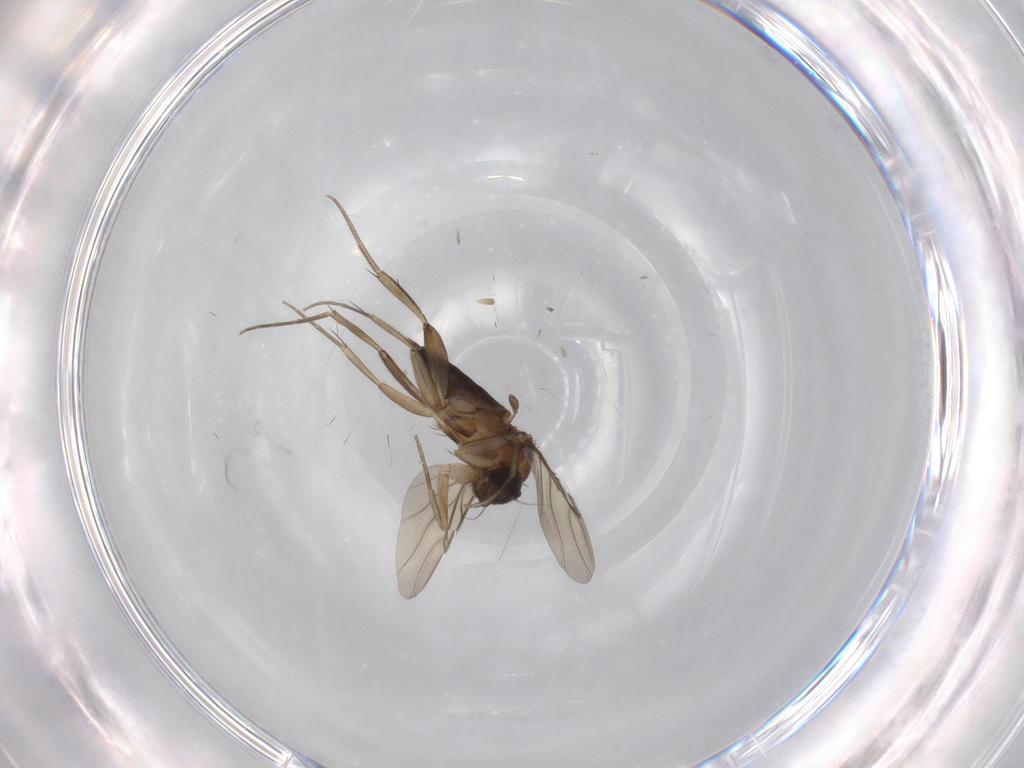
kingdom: Animalia
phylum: Arthropoda
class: Insecta
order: Diptera
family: Phoridae
